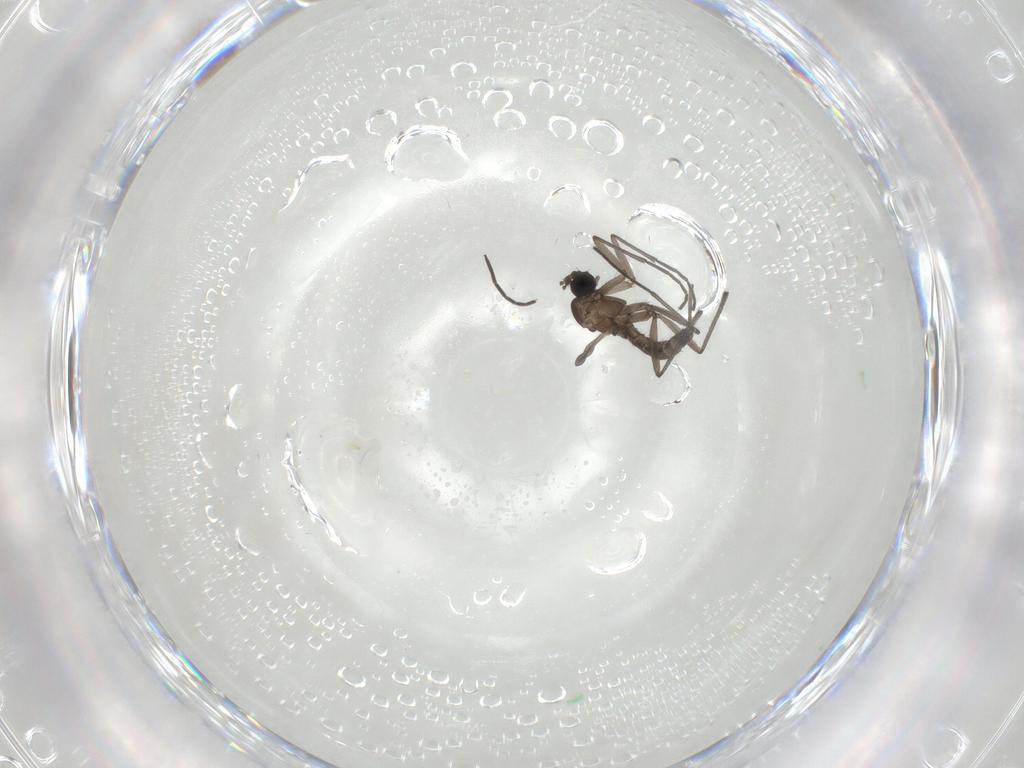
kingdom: Animalia
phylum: Arthropoda
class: Insecta
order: Diptera
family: Sciaridae
